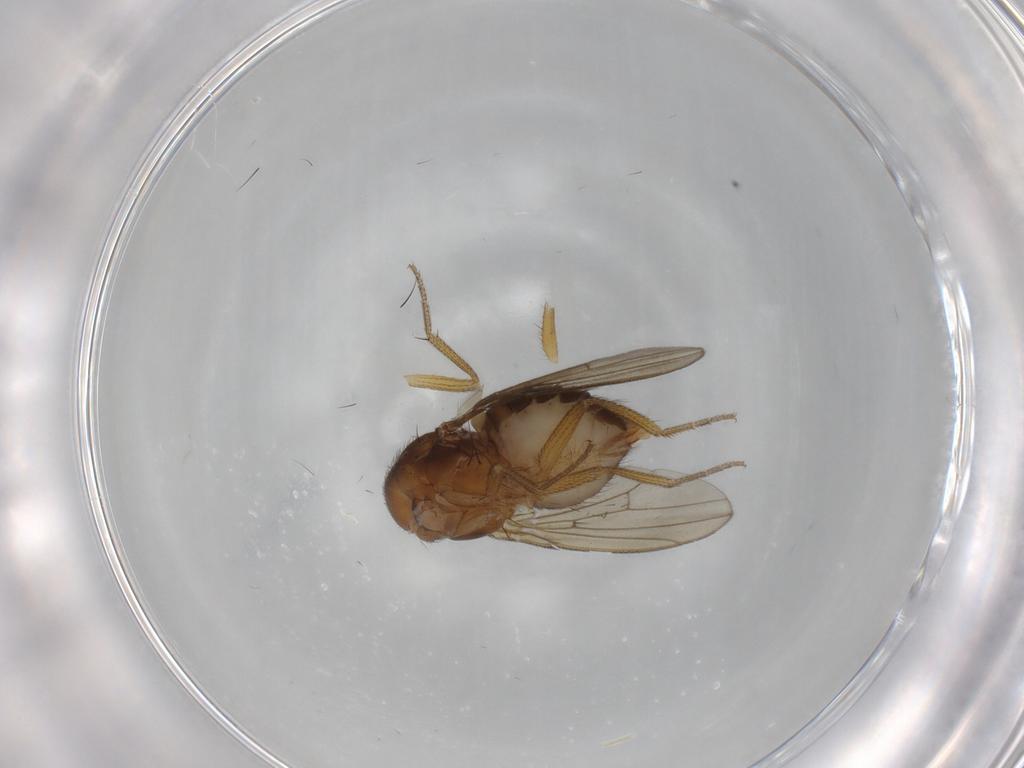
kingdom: Animalia
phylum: Arthropoda
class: Insecta
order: Diptera
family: Drosophilidae
